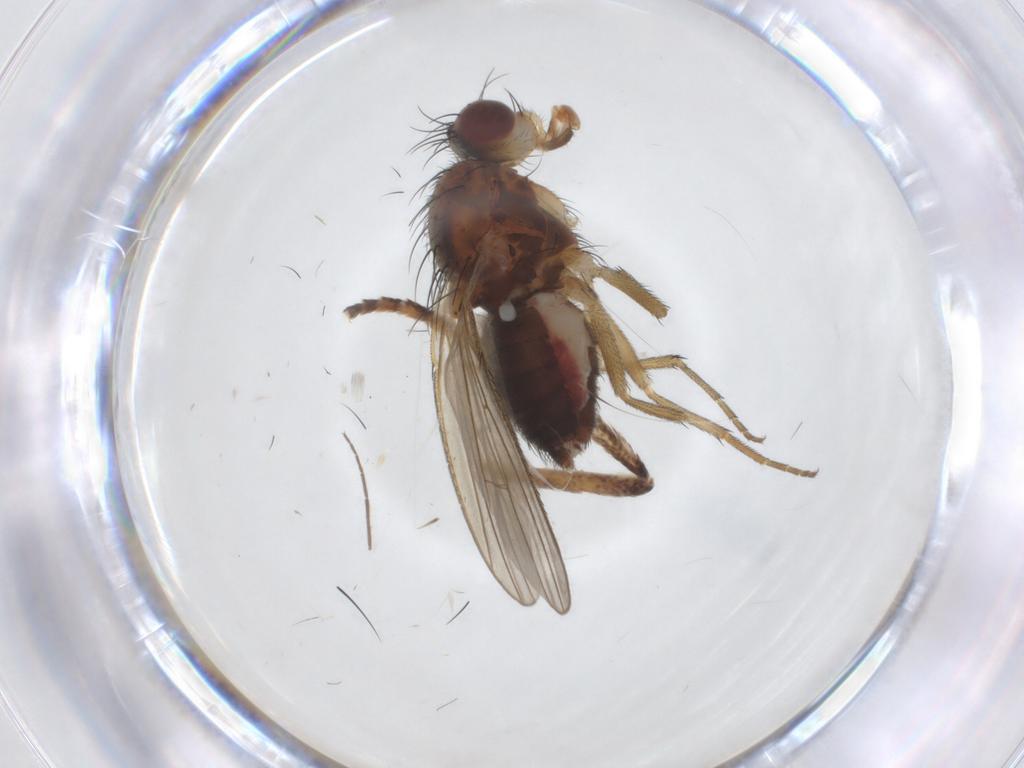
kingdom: Animalia
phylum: Arthropoda
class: Insecta
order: Diptera
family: Heleomyzidae
